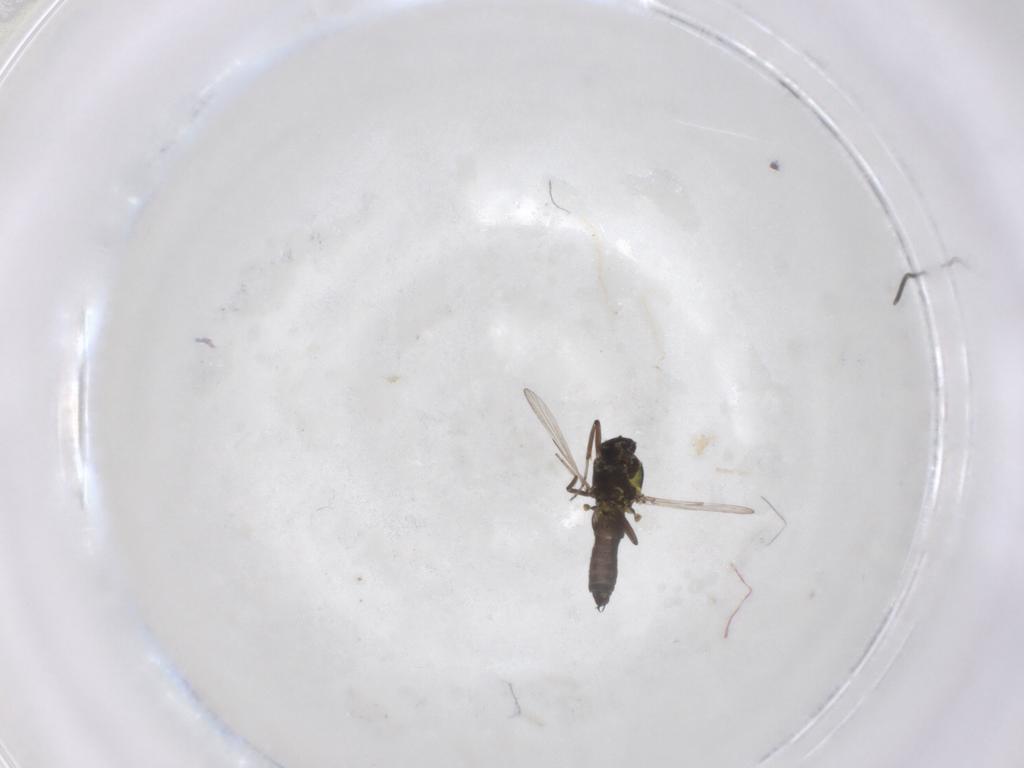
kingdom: Animalia
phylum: Arthropoda
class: Insecta
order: Diptera
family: Ceratopogonidae
